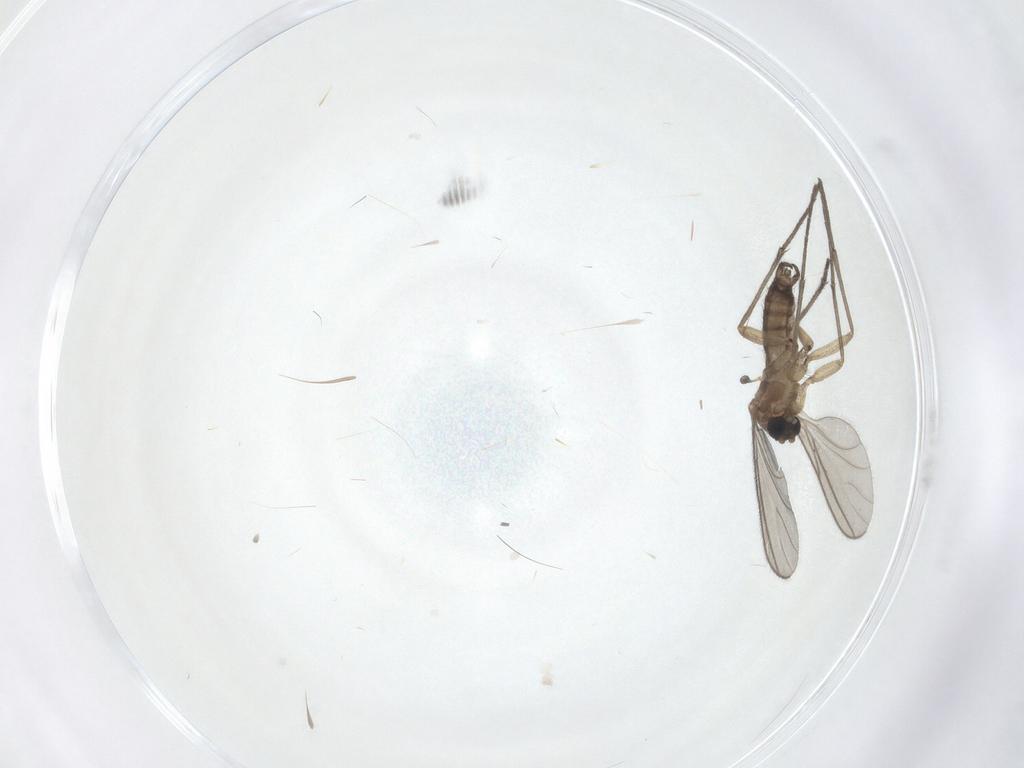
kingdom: Animalia
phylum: Arthropoda
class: Insecta
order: Diptera
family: Sciaridae
